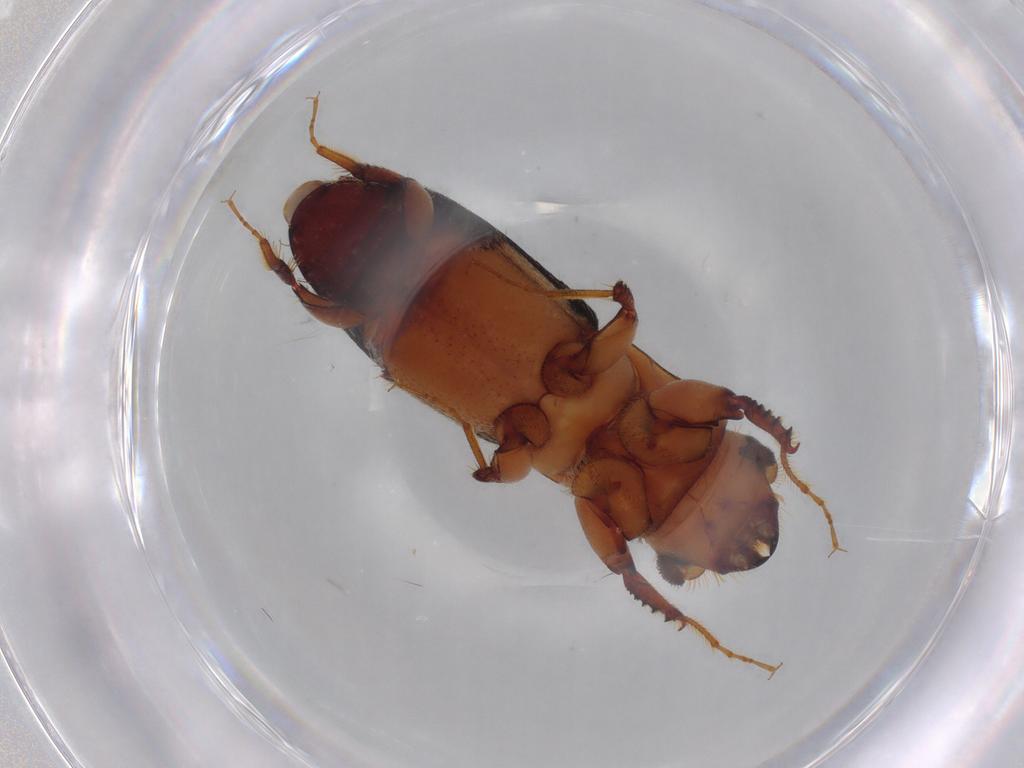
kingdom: Animalia
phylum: Arthropoda
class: Insecta
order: Coleoptera
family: Curculionidae
